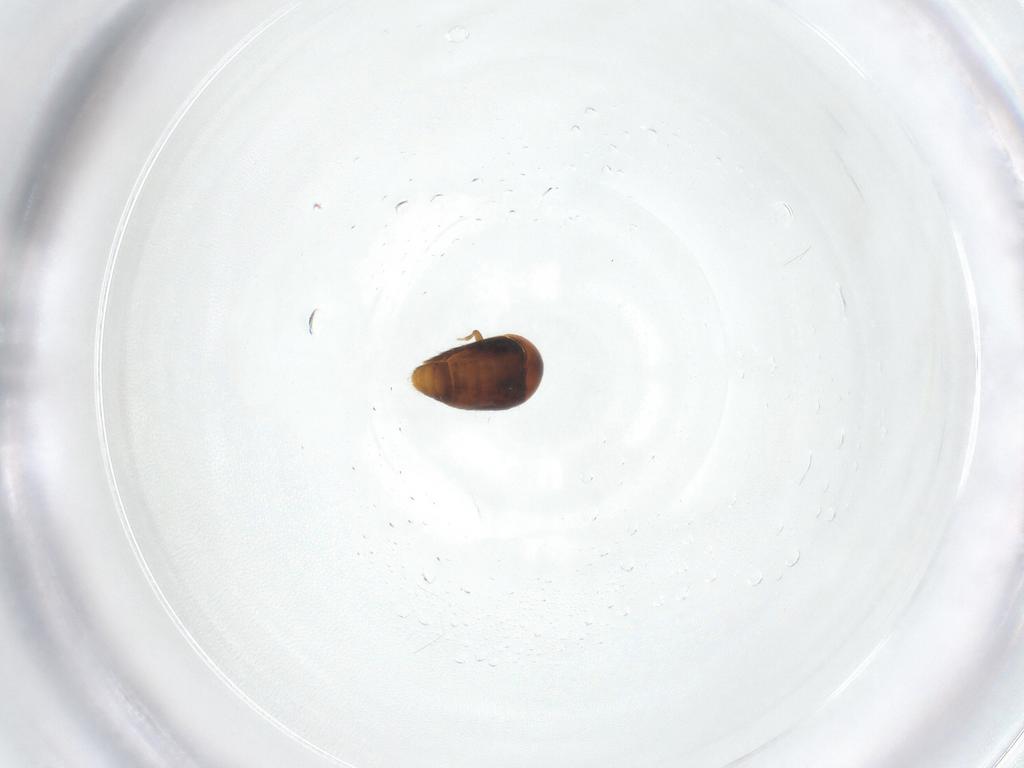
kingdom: Animalia
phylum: Arthropoda
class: Insecta
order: Coleoptera
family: Corylophidae
